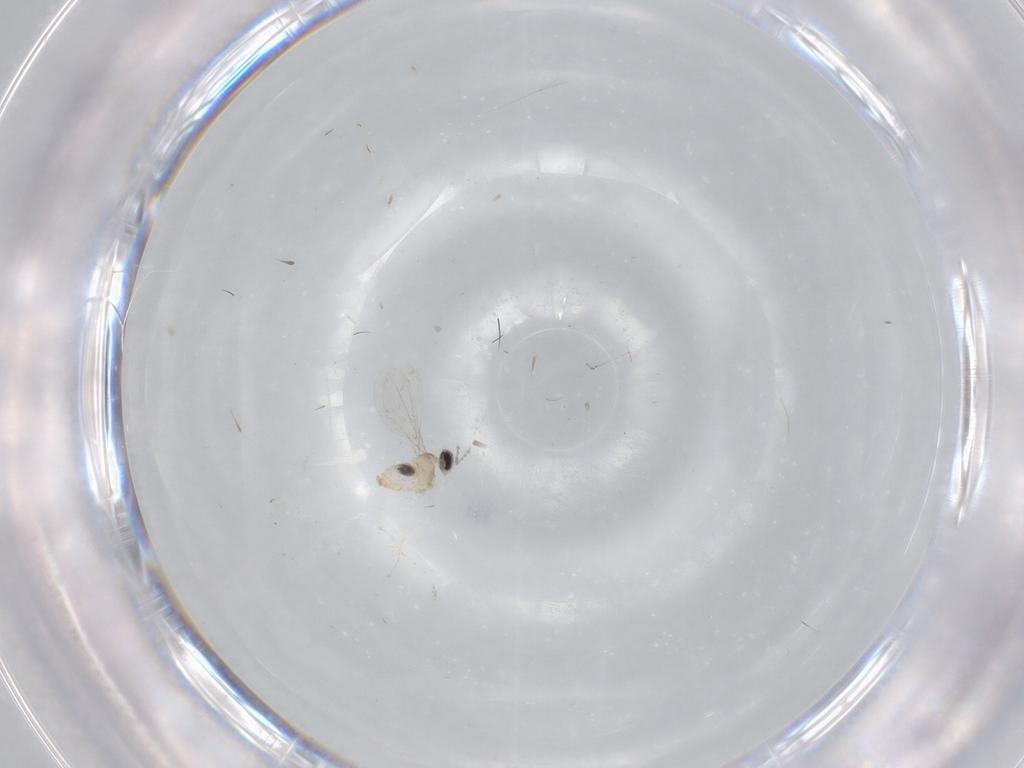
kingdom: Animalia
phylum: Arthropoda
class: Insecta
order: Diptera
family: Cecidomyiidae
